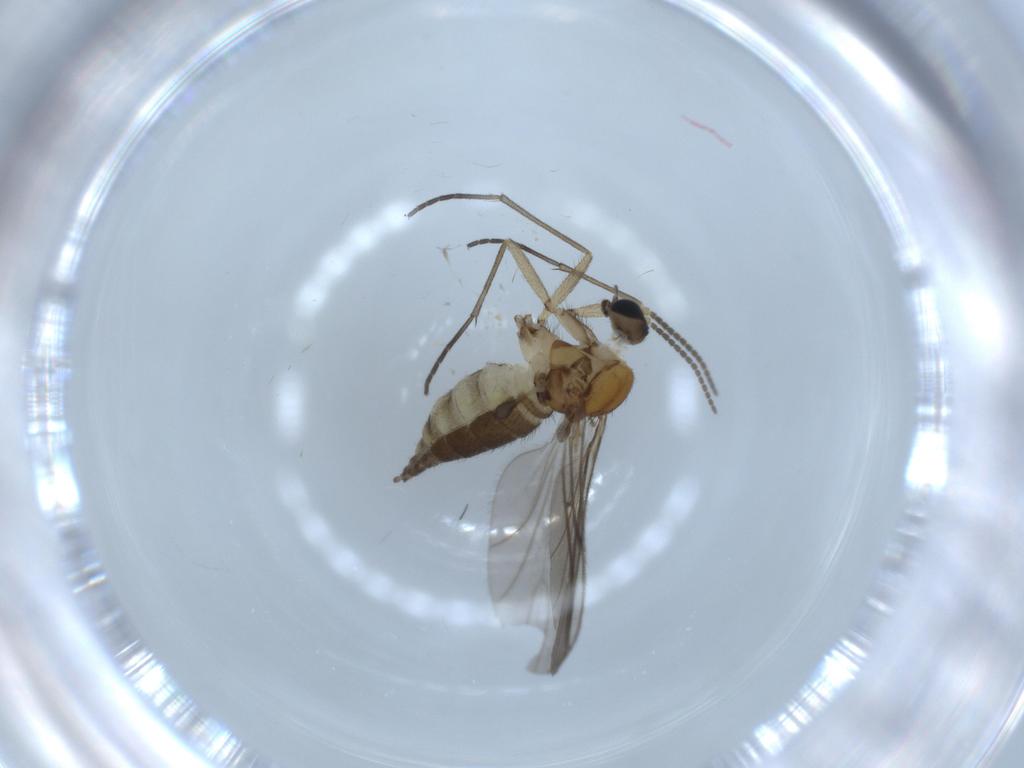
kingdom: Animalia
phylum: Arthropoda
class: Insecta
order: Diptera
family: Sciaridae
